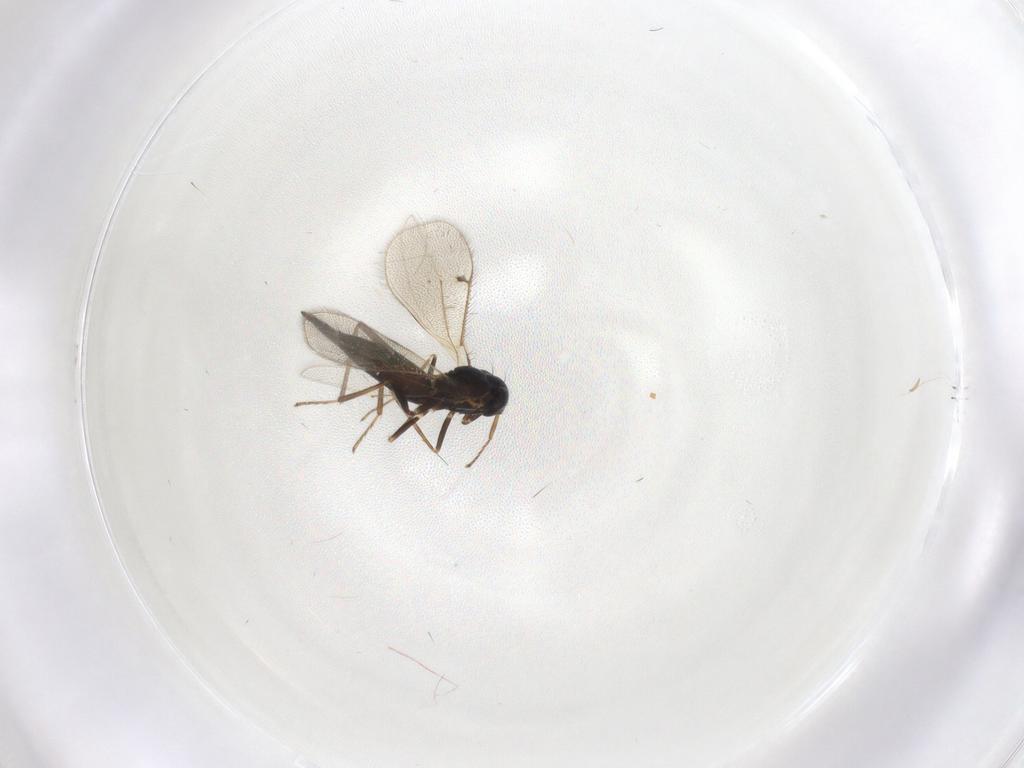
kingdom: Animalia
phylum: Arthropoda
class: Insecta
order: Diptera
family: Chironomidae
